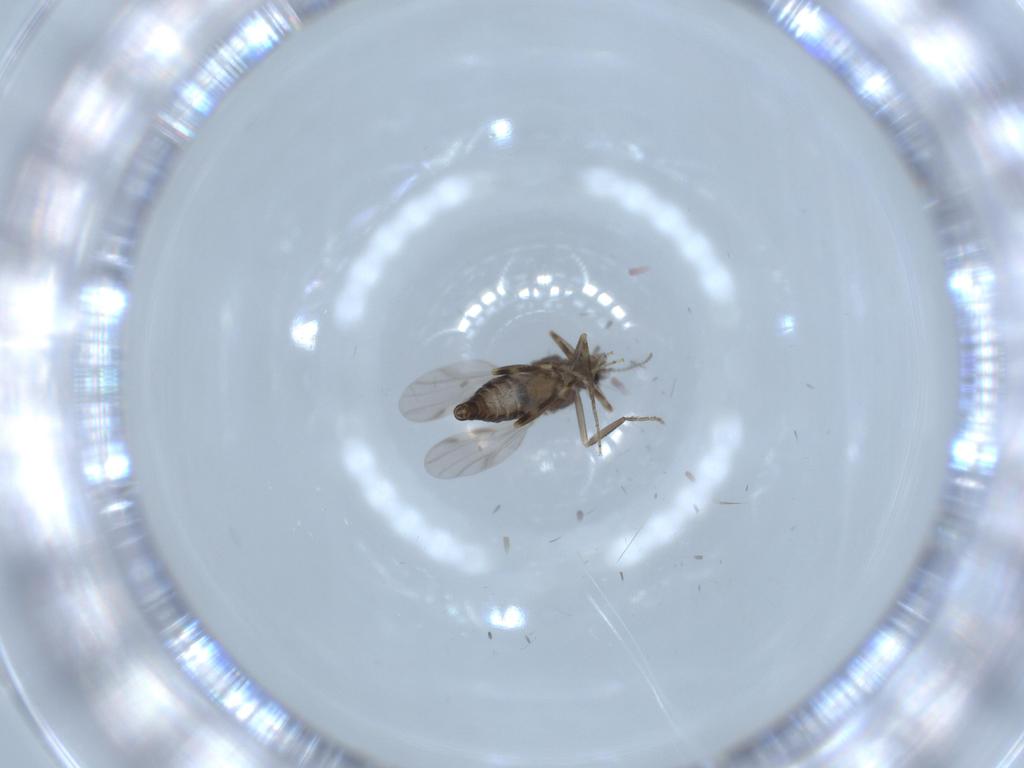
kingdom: Animalia
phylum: Arthropoda
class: Insecta
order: Diptera
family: Ceratopogonidae
